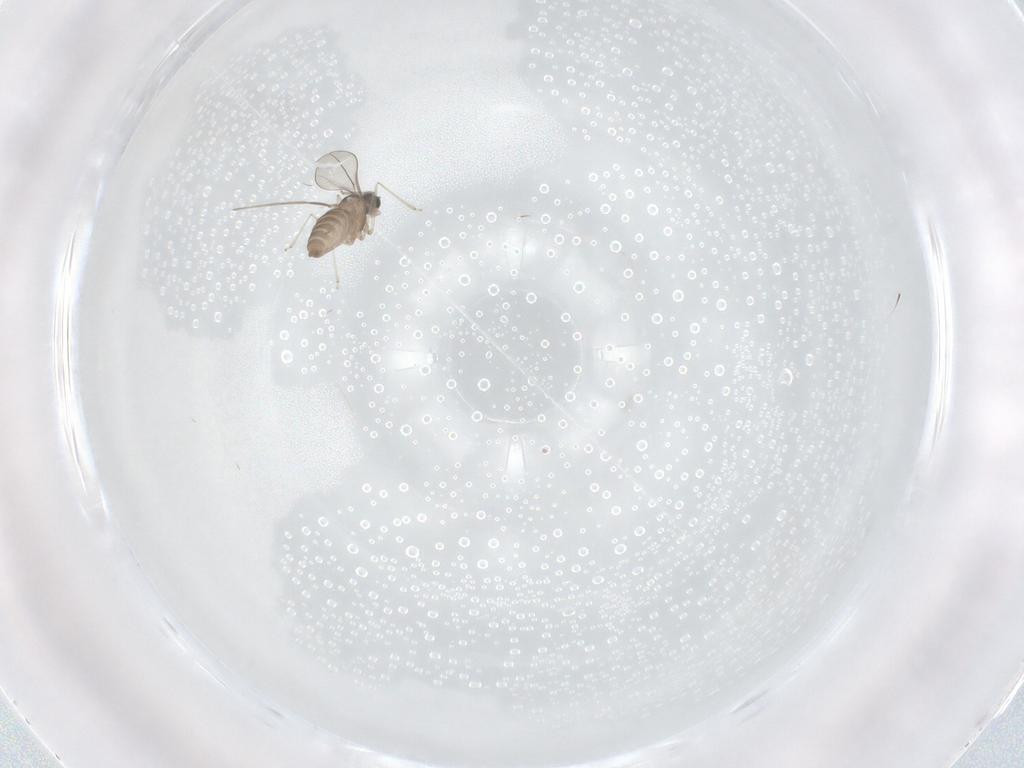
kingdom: Animalia
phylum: Arthropoda
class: Insecta
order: Diptera
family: Cecidomyiidae
